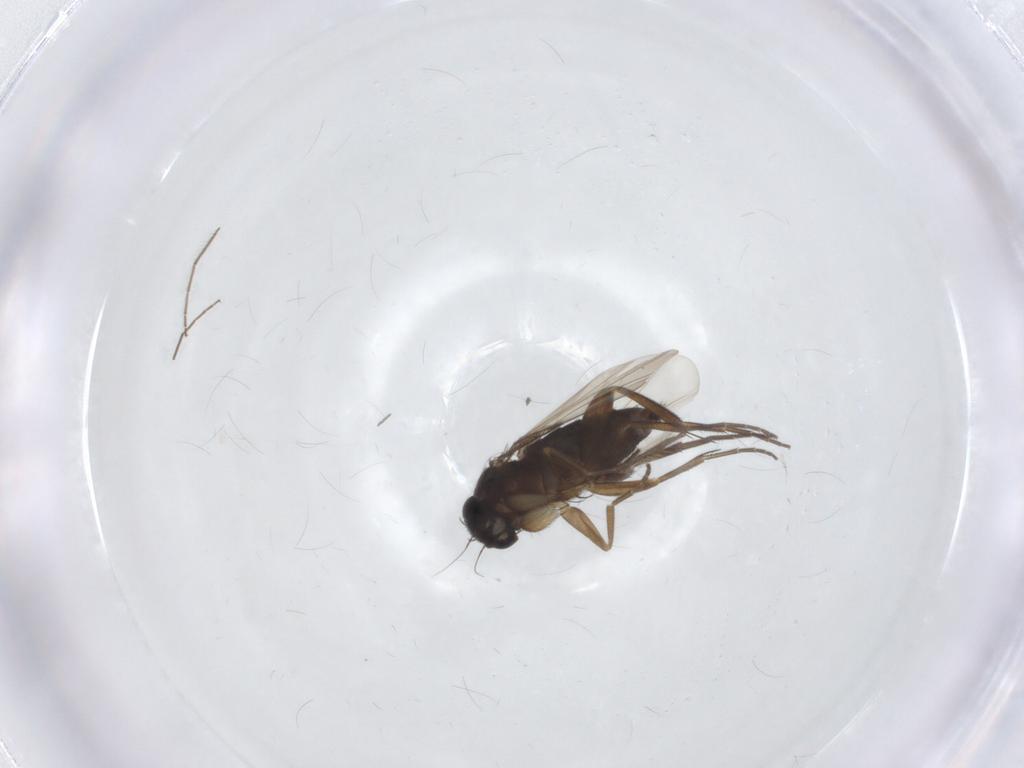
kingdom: Animalia
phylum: Arthropoda
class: Insecta
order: Diptera
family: Phoridae
